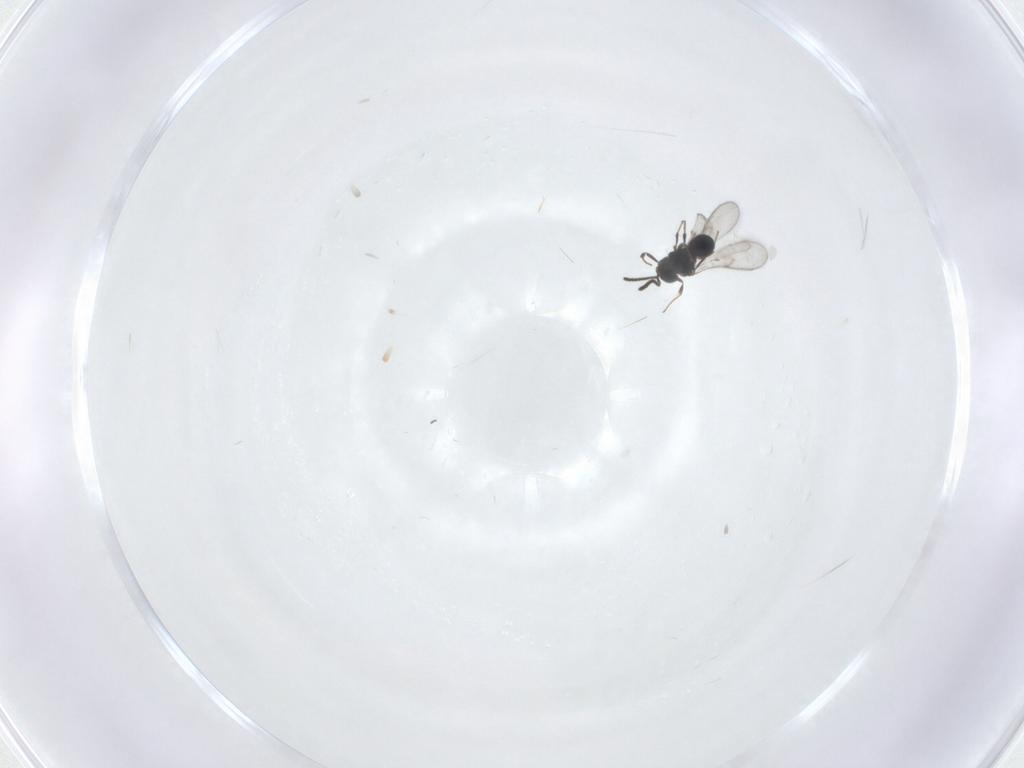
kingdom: Animalia
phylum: Arthropoda
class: Insecta
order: Hymenoptera
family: Scelionidae
